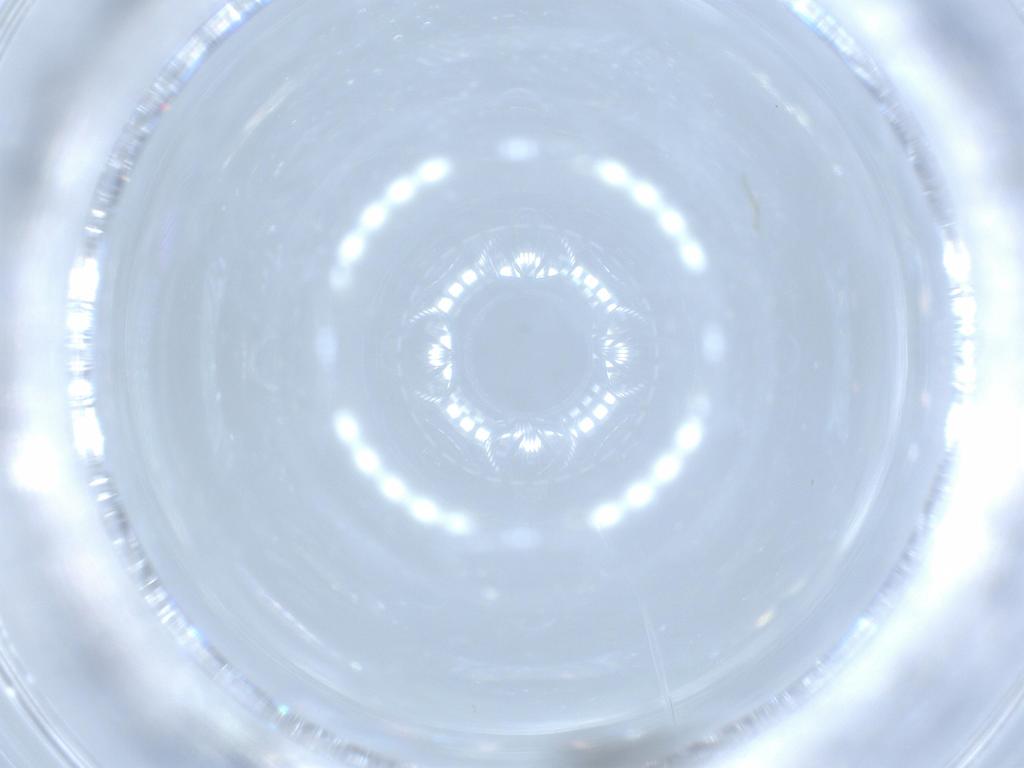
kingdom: Animalia
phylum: Arthropoda
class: Insecta
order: Diptera
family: Chironomidae
